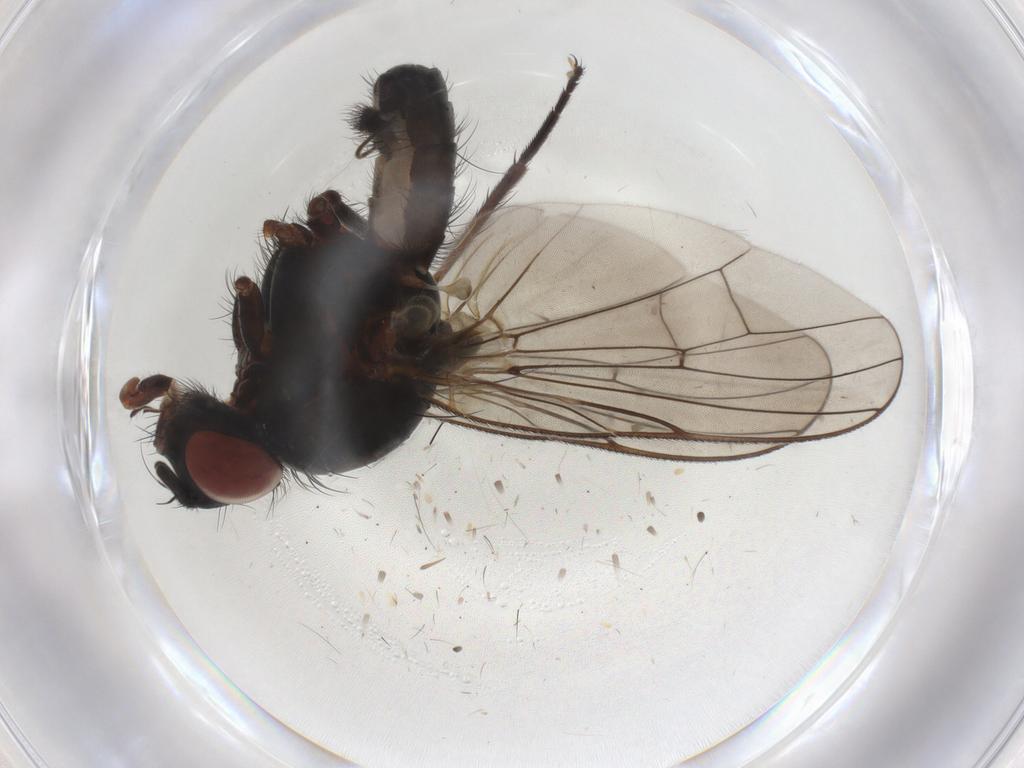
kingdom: Animalia
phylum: Arthropoda
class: Insecta
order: Diptera
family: Anthomyiidae
